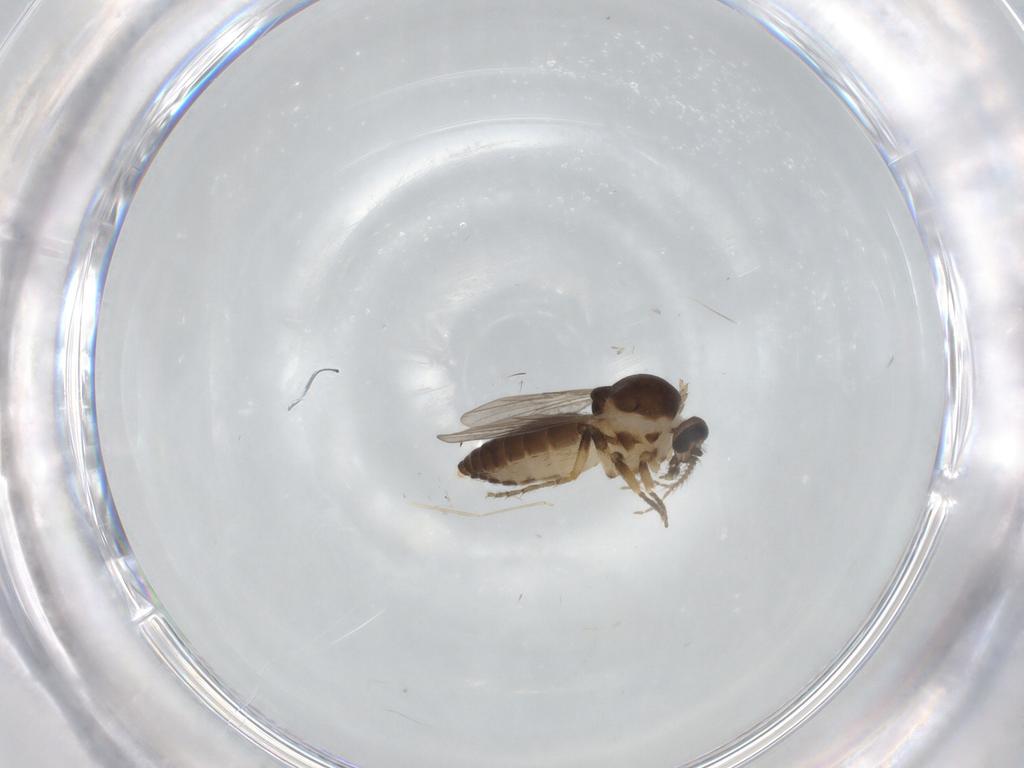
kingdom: Animalia
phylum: Arthropoda
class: Insecta
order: Diptera
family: Ceratopogonidae
